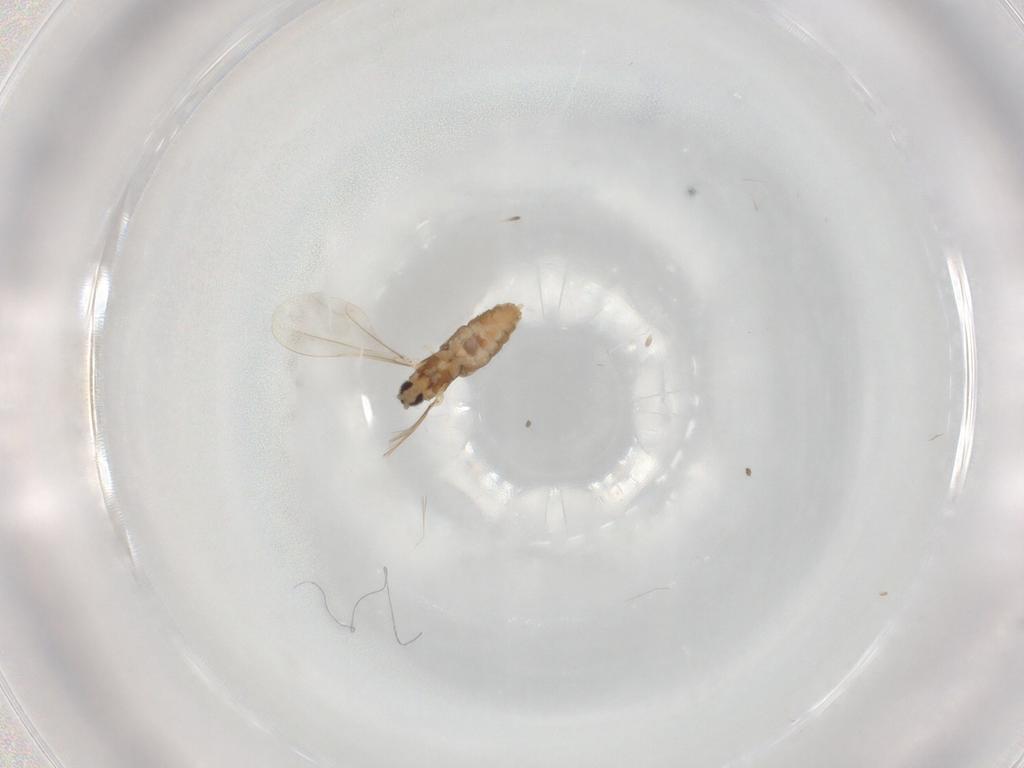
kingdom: Animalia
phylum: Arthropoda
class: Insecta
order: Diptera
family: Cecidomyiidae
